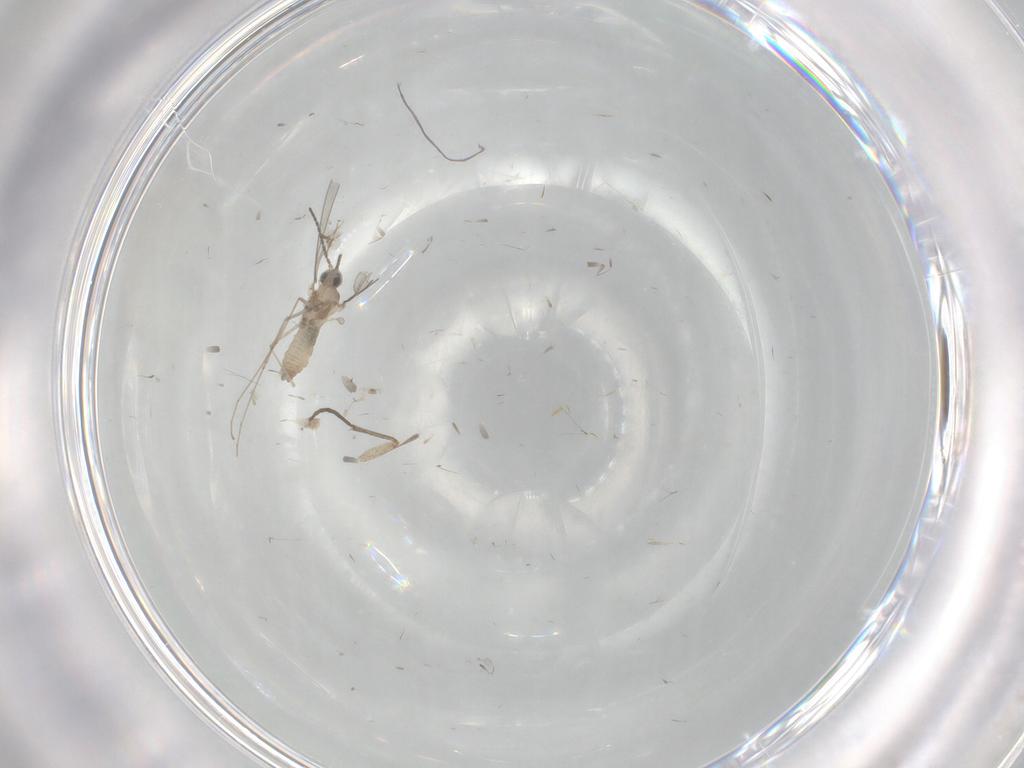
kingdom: Animalia
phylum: Arthropoda
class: Insecta
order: Diptera
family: Cecidomyiidae
